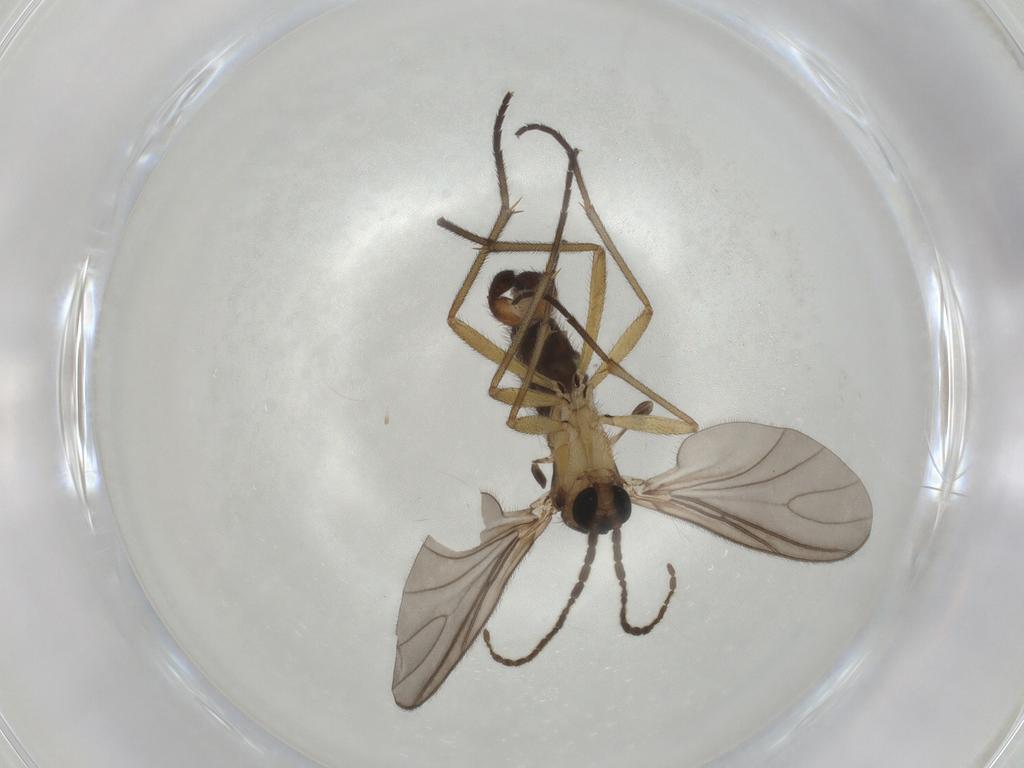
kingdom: Animalia
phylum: Arthropoda
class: Insecta
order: Diptera
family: Sciaridae
